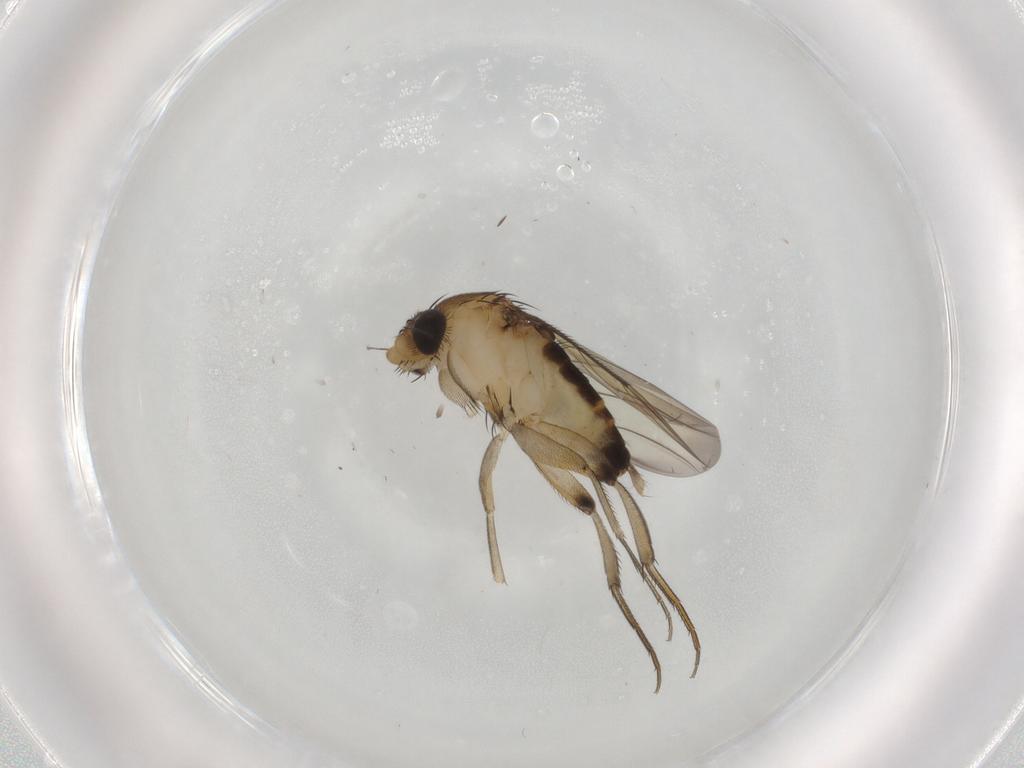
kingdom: Animalia
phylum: Arthropoda
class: Insecta
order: Diptera
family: Phoridae
